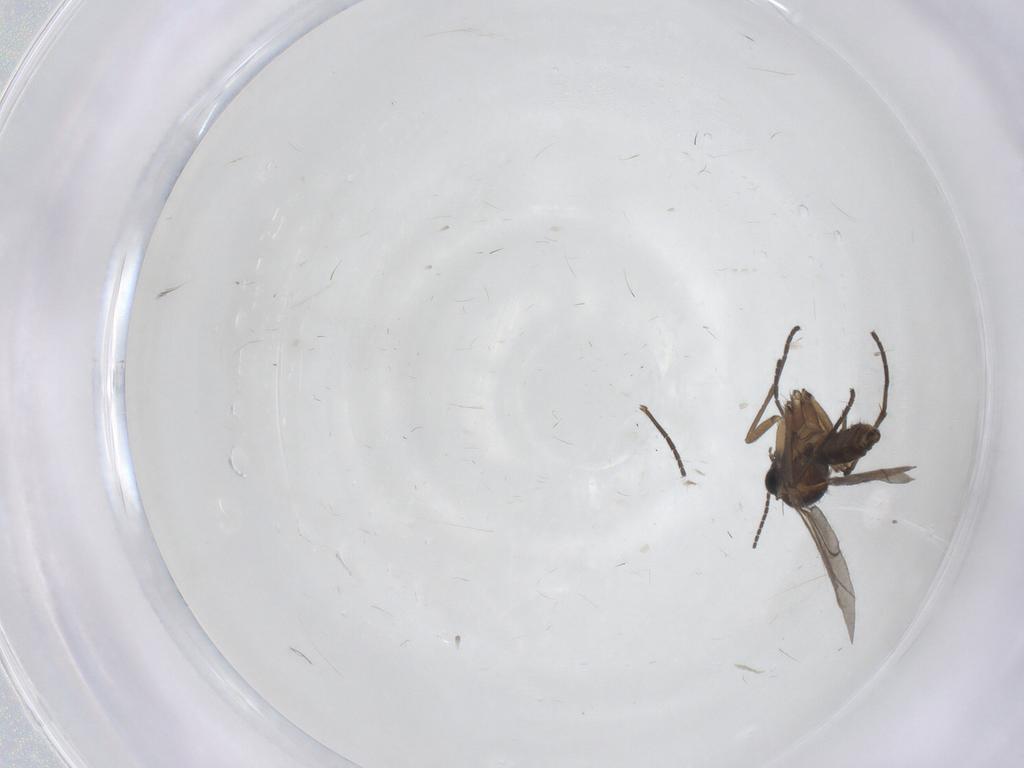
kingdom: Animalia
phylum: Arthropoda
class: Insecta
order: Diptera
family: Sciaridae
